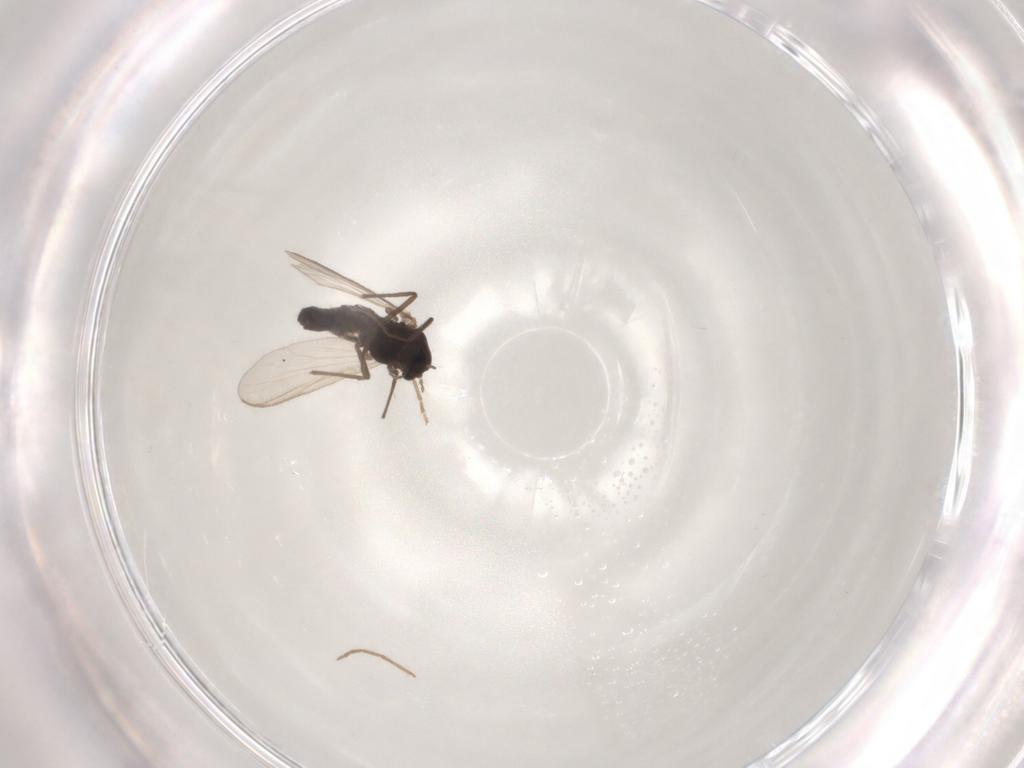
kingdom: Animalia
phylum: Arthropoda
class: Insecta
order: Diptera
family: Chironomidae
